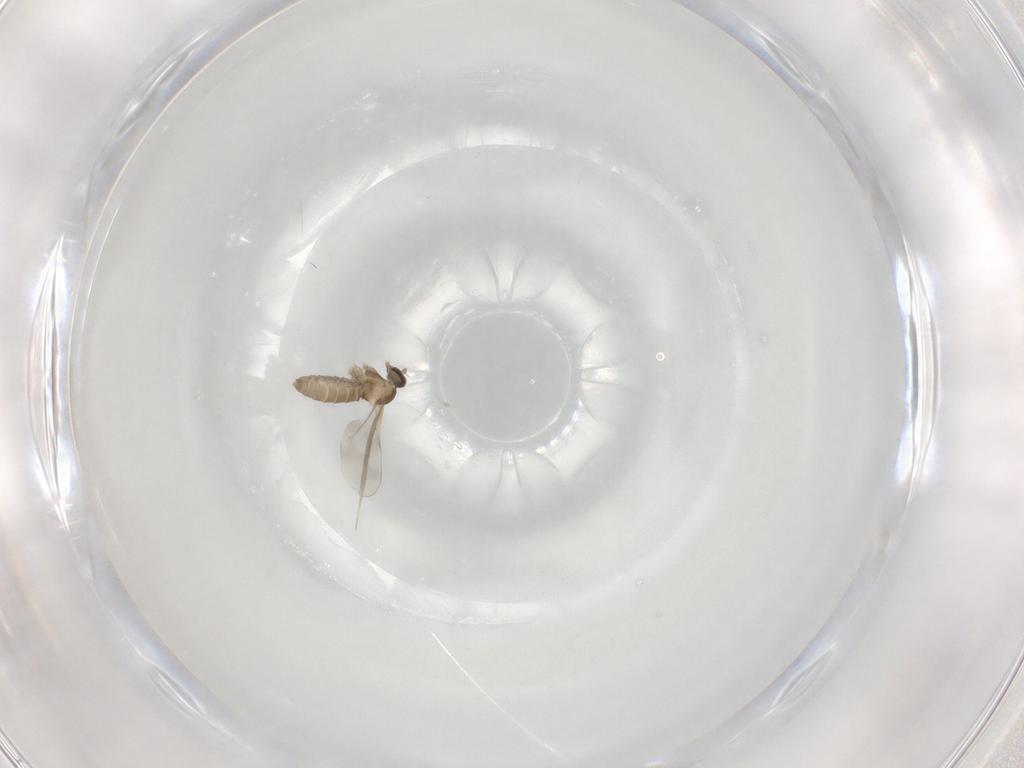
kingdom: Animalia
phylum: Arthropoda
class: Insecta
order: Diptera
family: Cecidomyiidae
